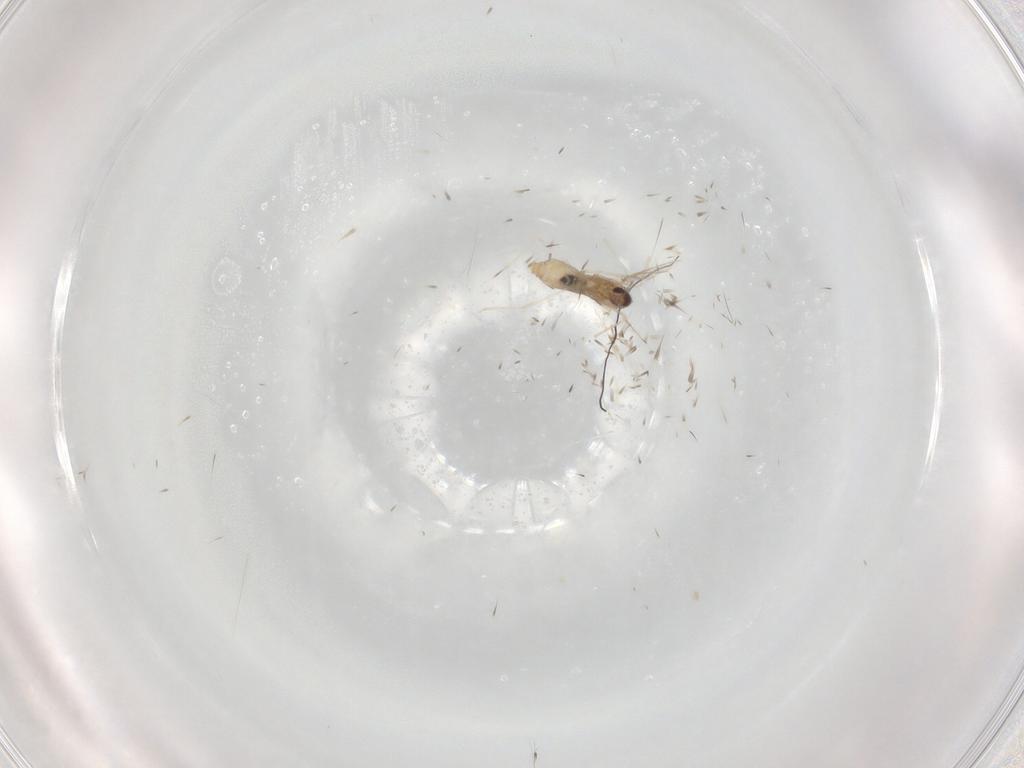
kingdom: Animalia
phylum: Arthropoda
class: Insecta
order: Diptera
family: Cecidomyiidae
